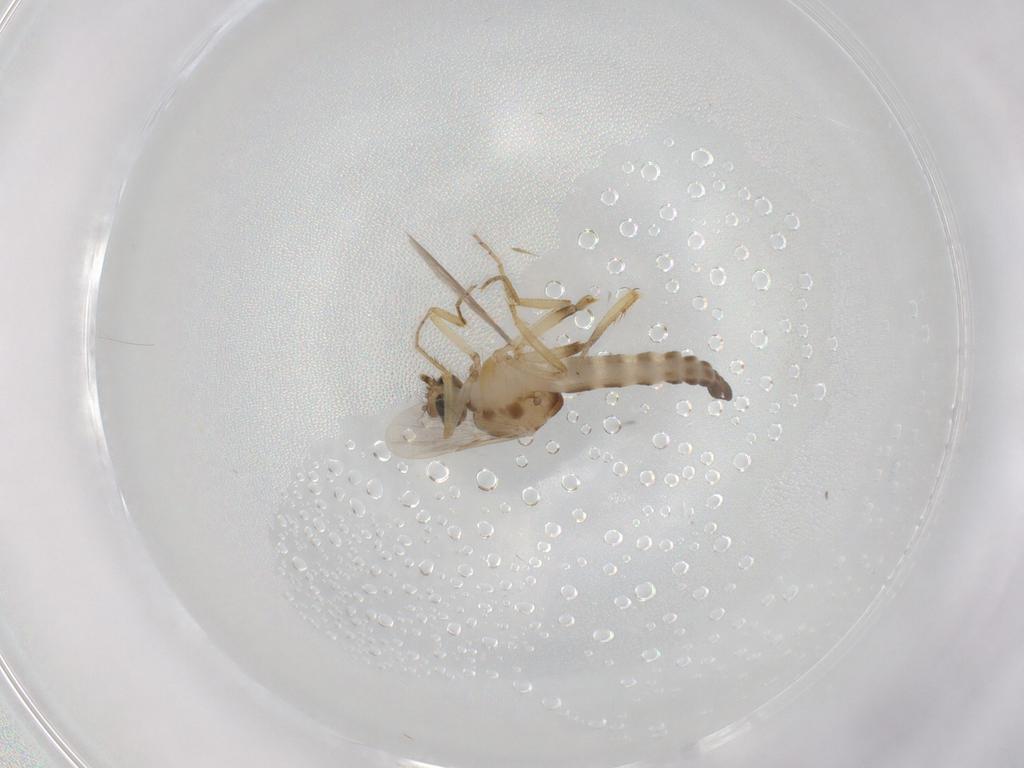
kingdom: Animalia
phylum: Arthropoda
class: Insecta
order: Diptera
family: Ceratopogonidae
